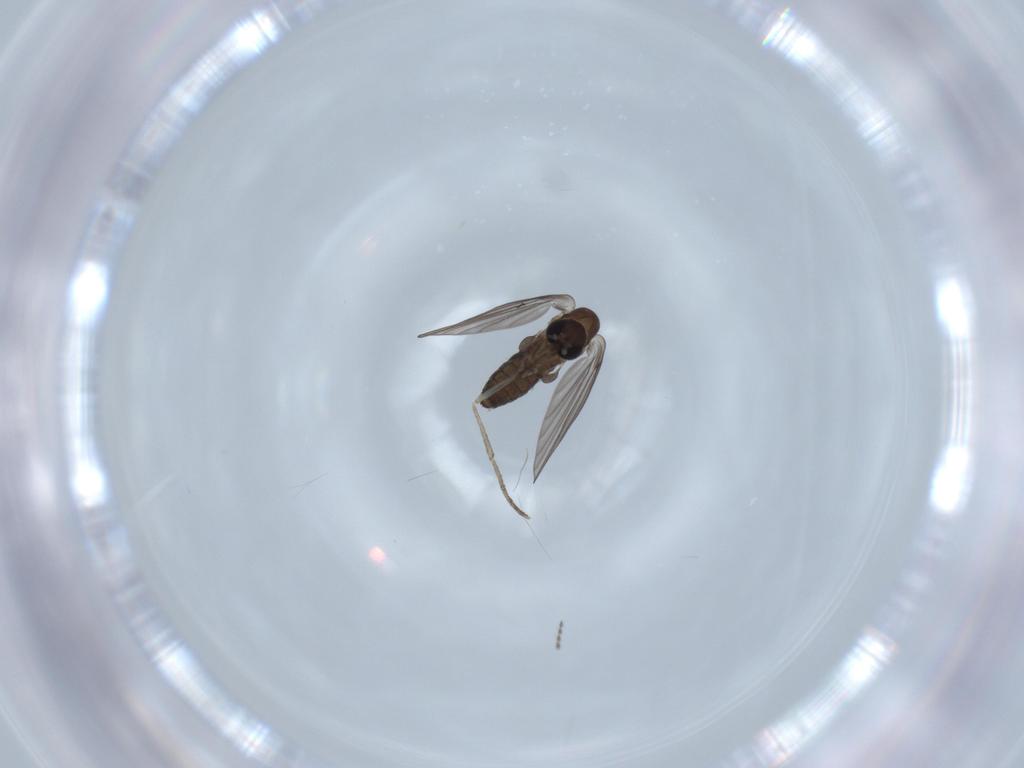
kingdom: Animalia
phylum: Arthropoda
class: Insecta
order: Diptera
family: Psychodidae
